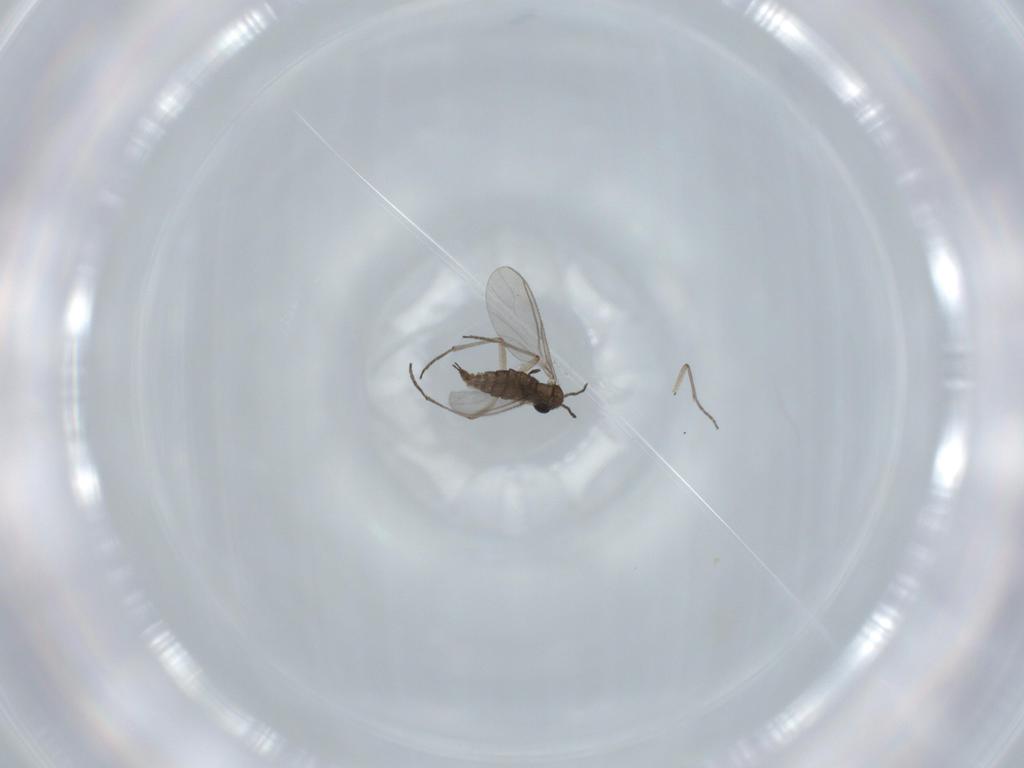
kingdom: Animalia
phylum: Arthropoda
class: Insecta
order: Diptera
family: Sciaridae
